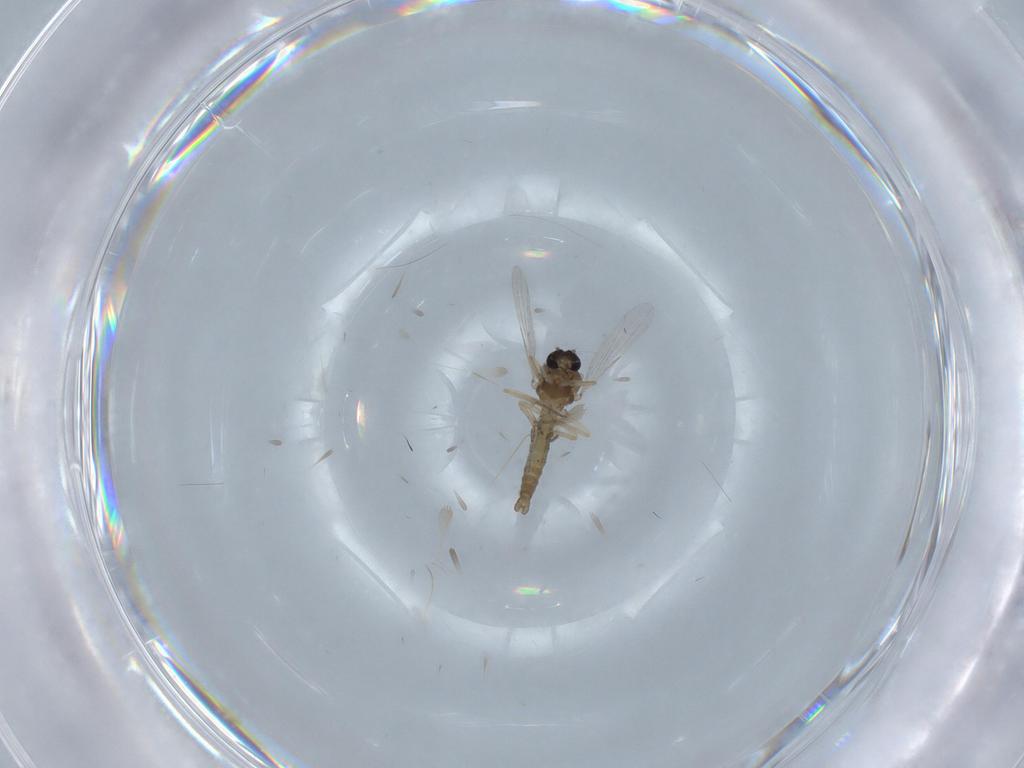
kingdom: Animalia
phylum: Arthropoda
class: Insecta
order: Diptera
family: Ceratopogonidae
